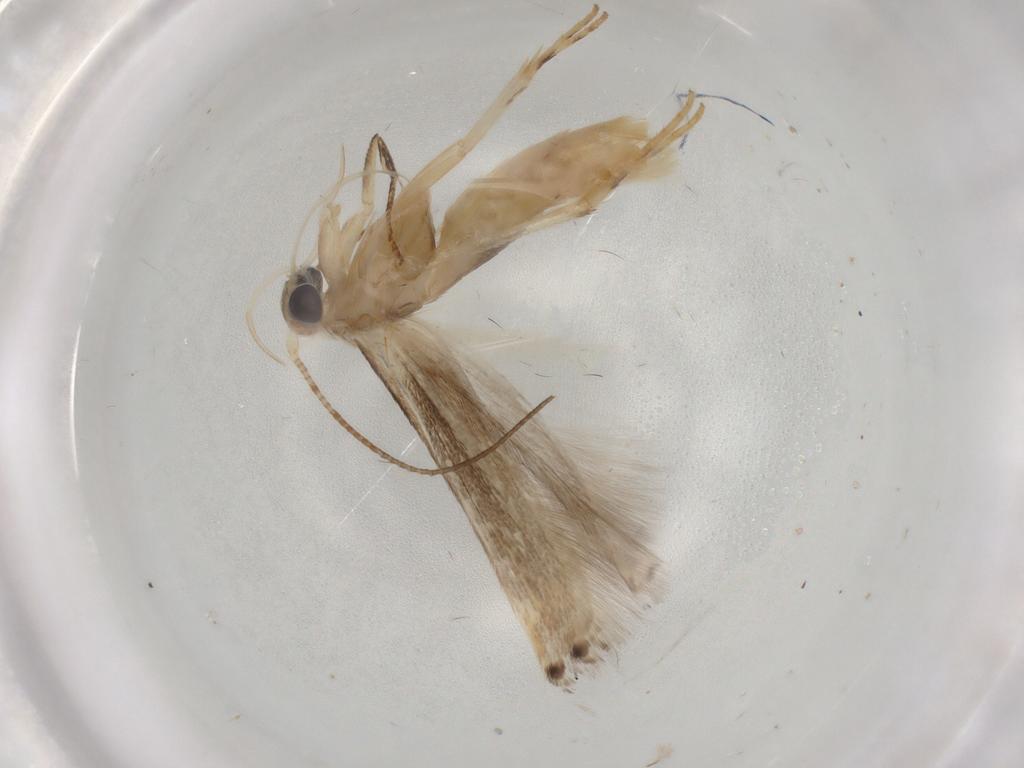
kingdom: Animalia
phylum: Arthropoda
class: Insecta
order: Lepidoptera
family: Gelechiidae
